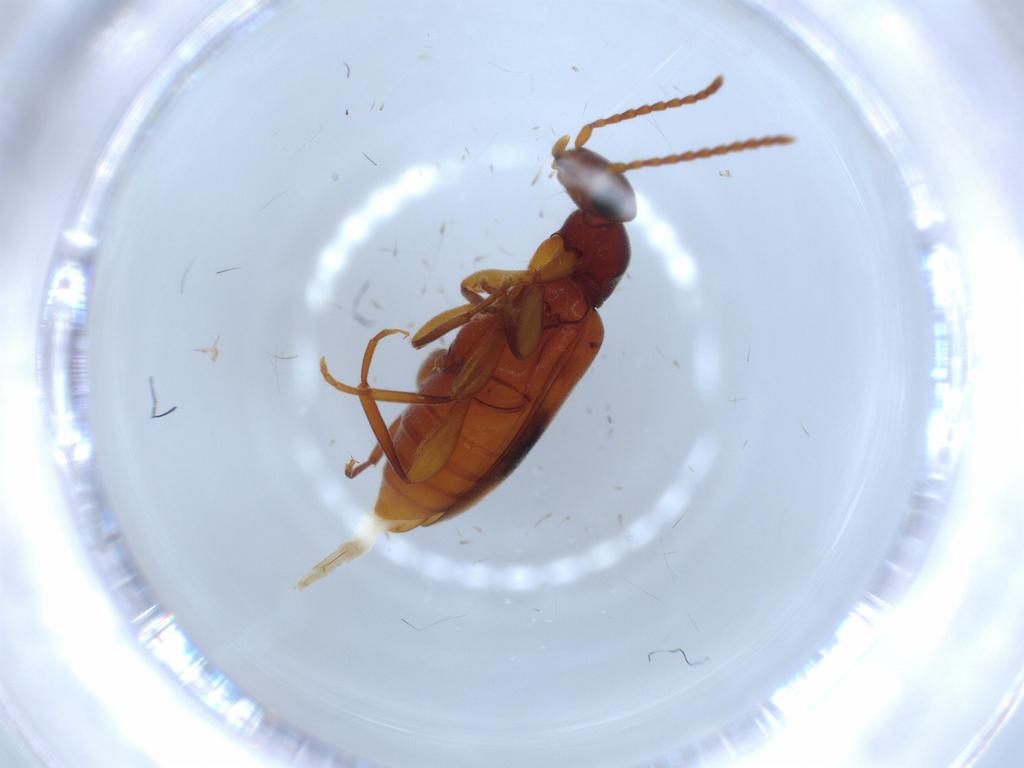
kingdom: Animalia
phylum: Arthropoda
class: Insecta
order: Coleoptera
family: Anthicidae
